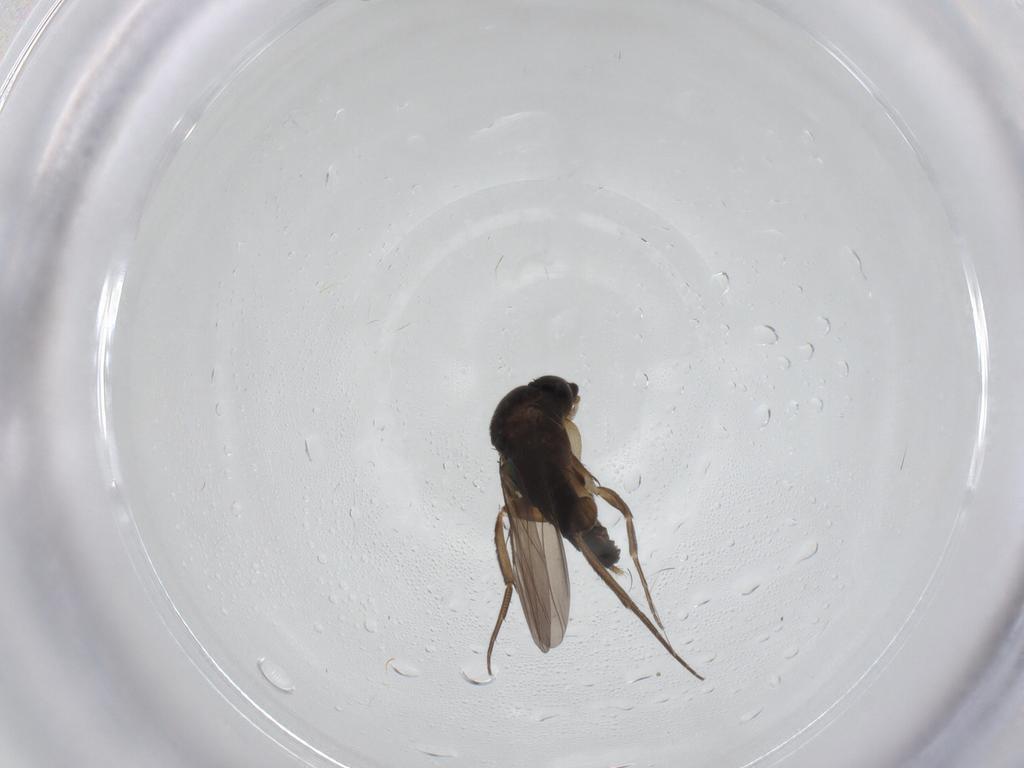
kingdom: Animalia
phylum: Arthropoda
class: Insecta
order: Diptera
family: Phoridae
